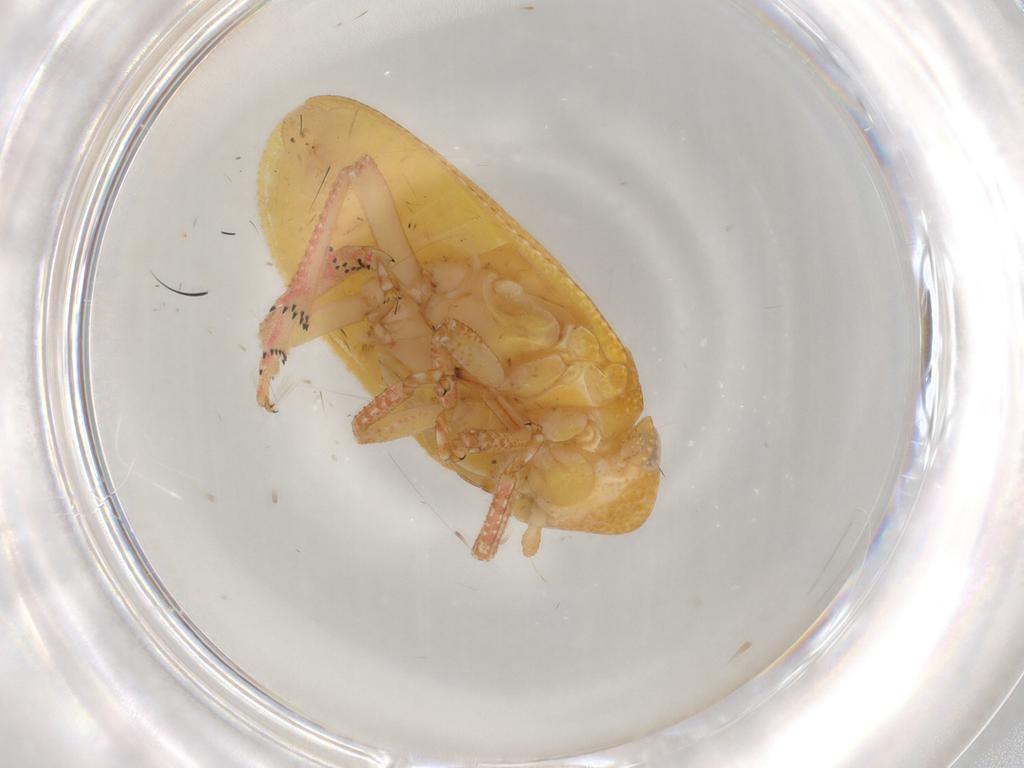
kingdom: Animalia
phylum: Arthropoda
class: Insecta
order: Hemiptera
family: Tettigometridae
